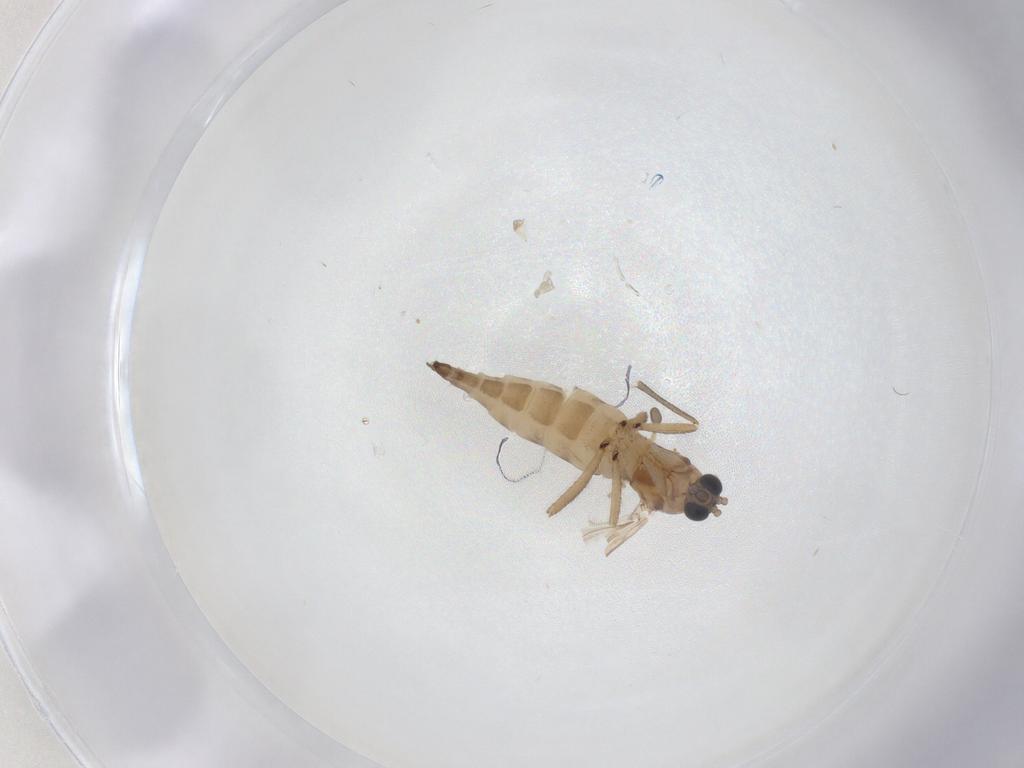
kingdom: Animalia
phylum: Arthropoda
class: Insecta
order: Diptera
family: Sciaridae
